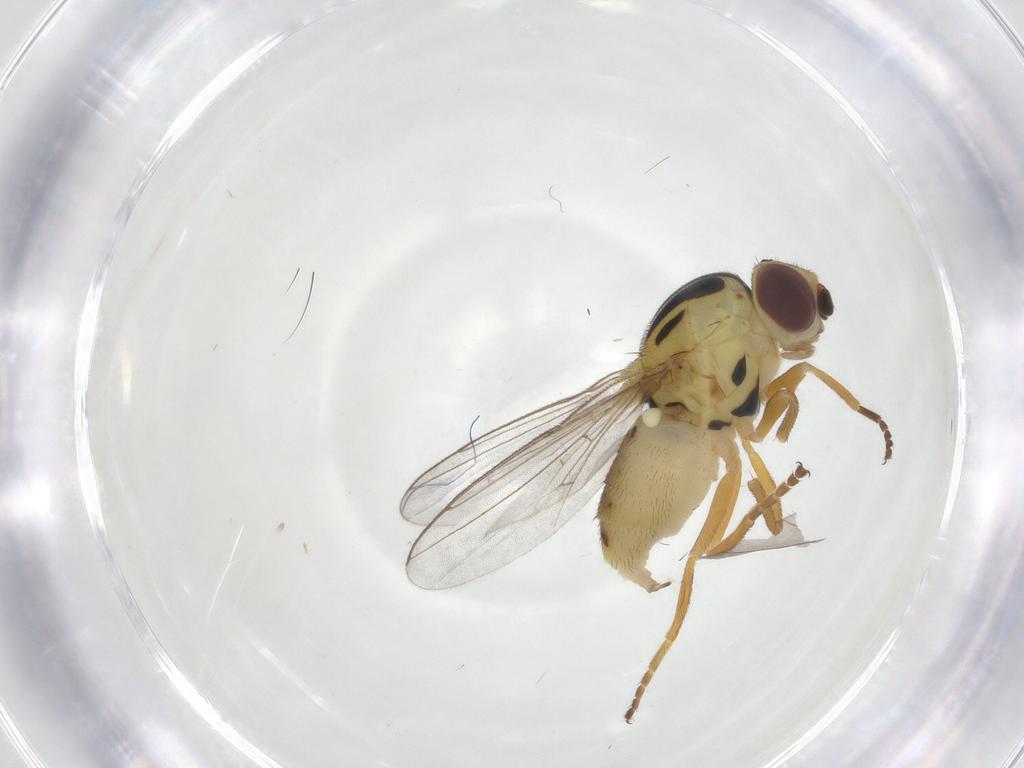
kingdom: Animalia
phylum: Arthropoda
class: Insecta
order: Diptera
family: Chloropidae
